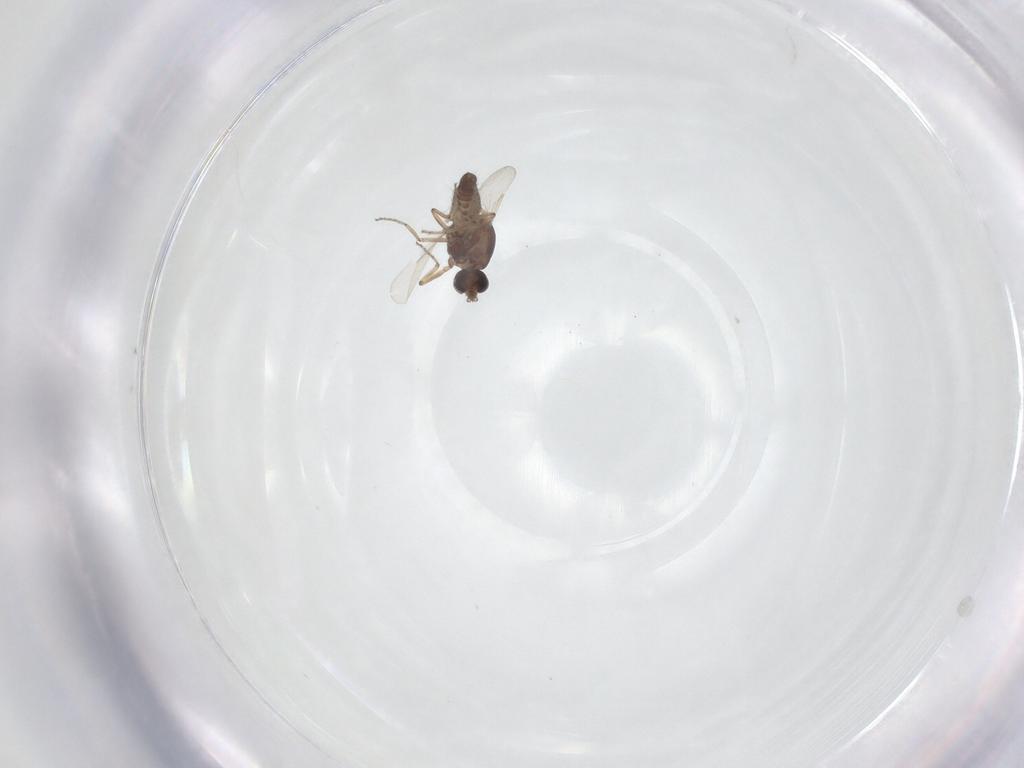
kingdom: Animalia
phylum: Arthropoda
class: Insecta
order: Diptera
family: Ceratopogonidae
